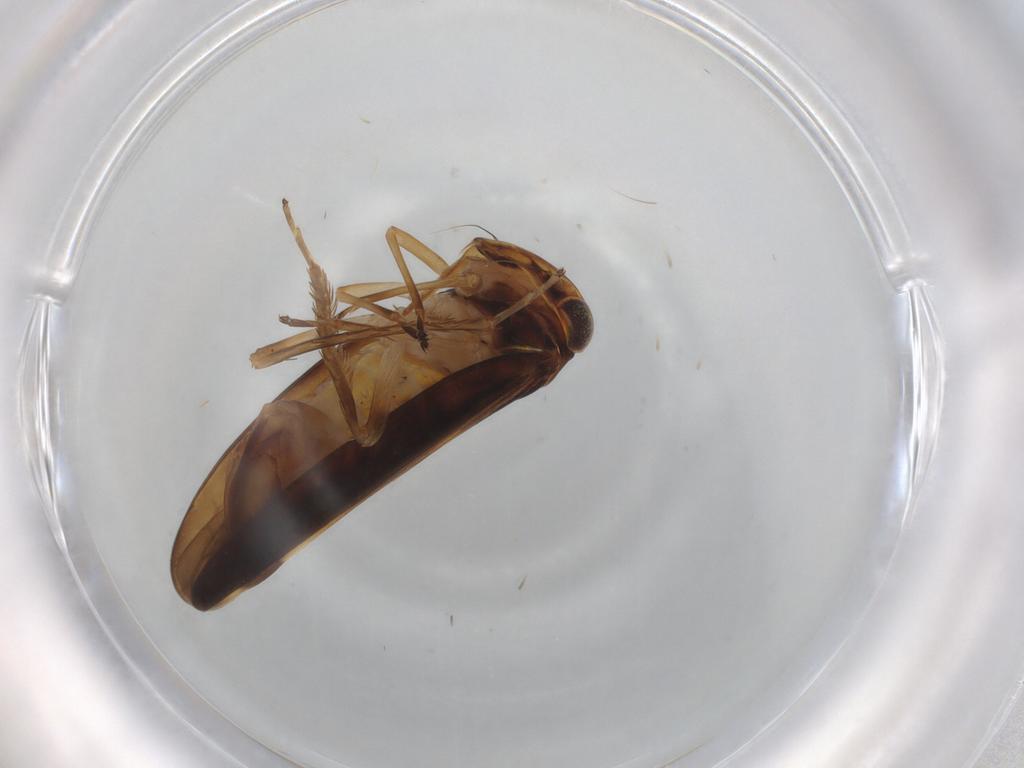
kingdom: Animalia
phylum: Arthropoda
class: Insecta
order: Hemiptera
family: Cicadellidae
